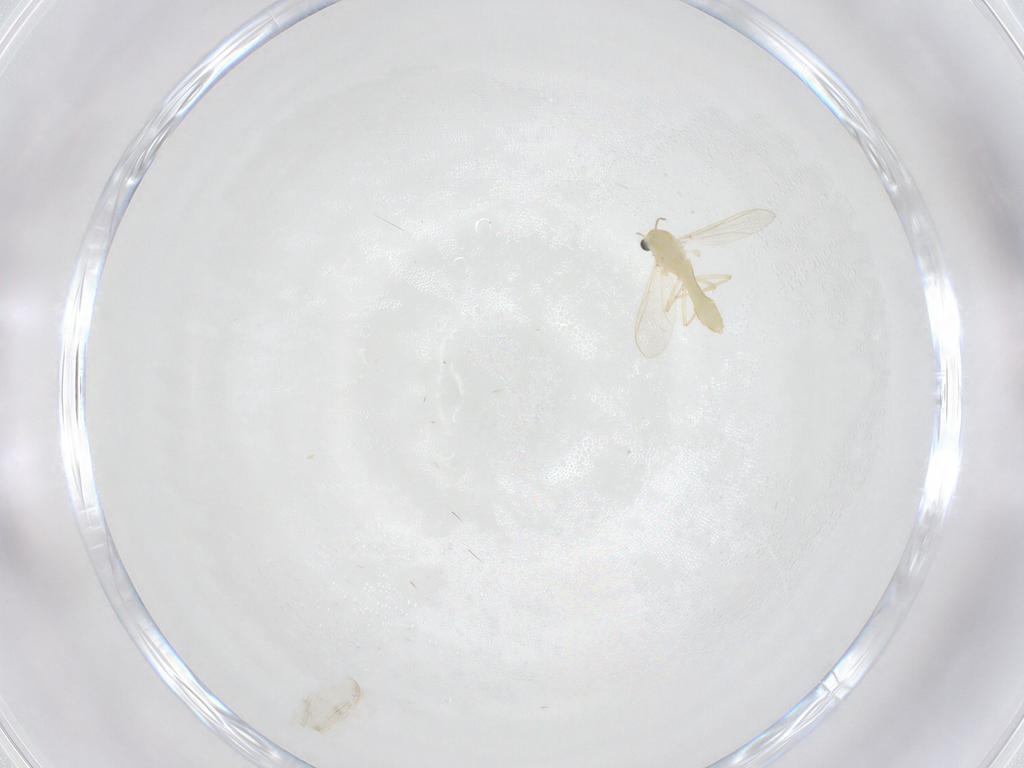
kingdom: Animalia
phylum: Arthropoda
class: Insecta
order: Diptera
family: Chironomidae
